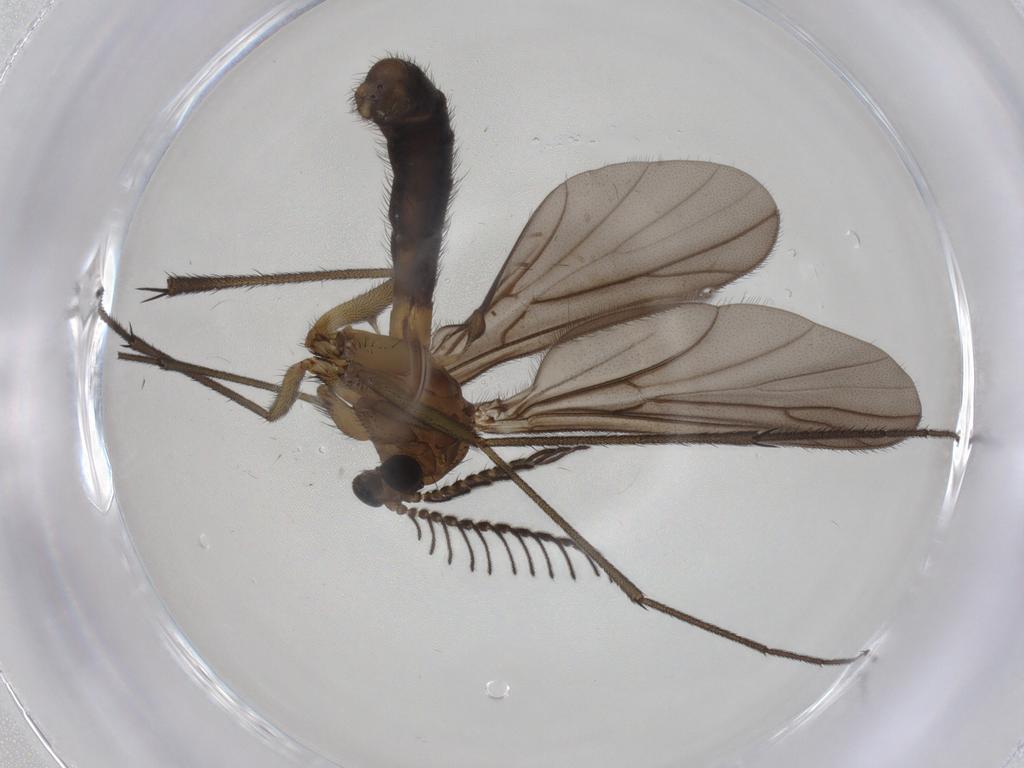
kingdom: Animalia
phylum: Arthropoda
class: Insecta
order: Diptera
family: Ditomyiidae
